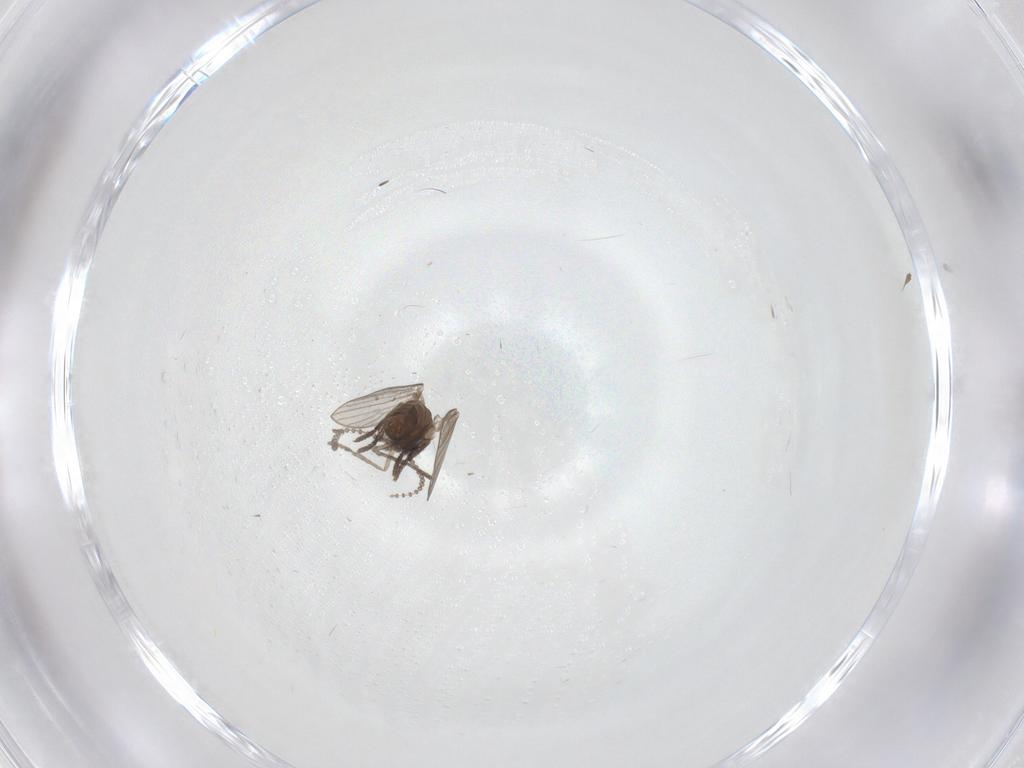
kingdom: Animalia
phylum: Arthropoda
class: Insecta
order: Diptera
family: Psychodidae
